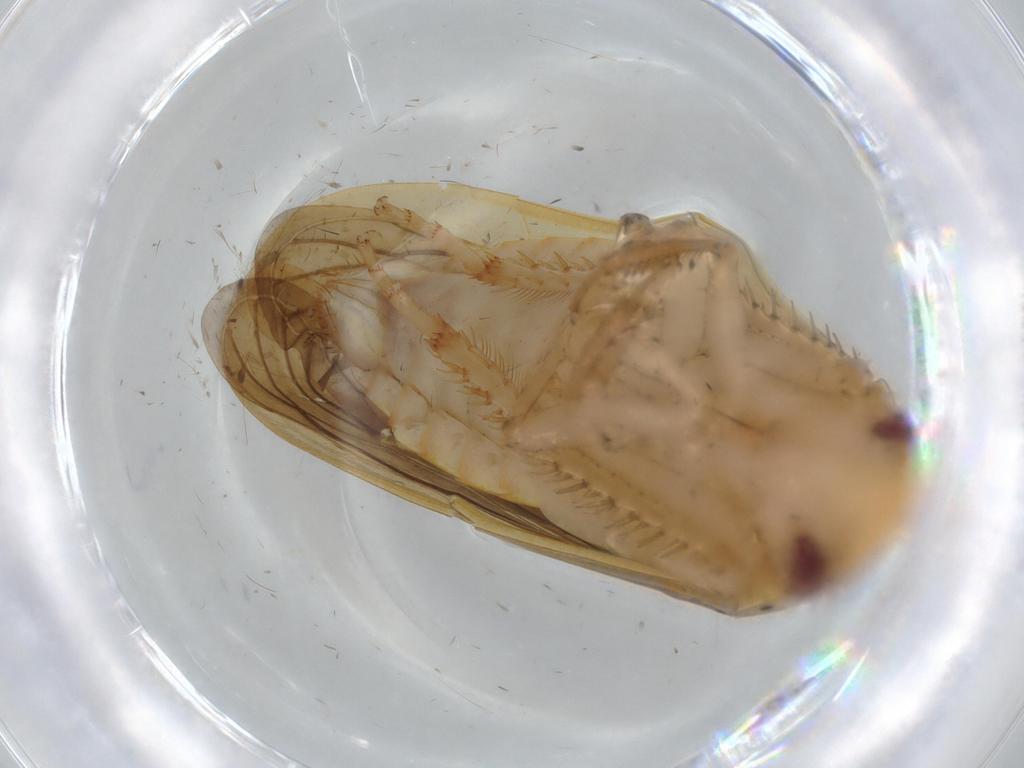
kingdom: Animalia
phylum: Arthropoda
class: Insecta
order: Hemiptera
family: Cicadellidae
